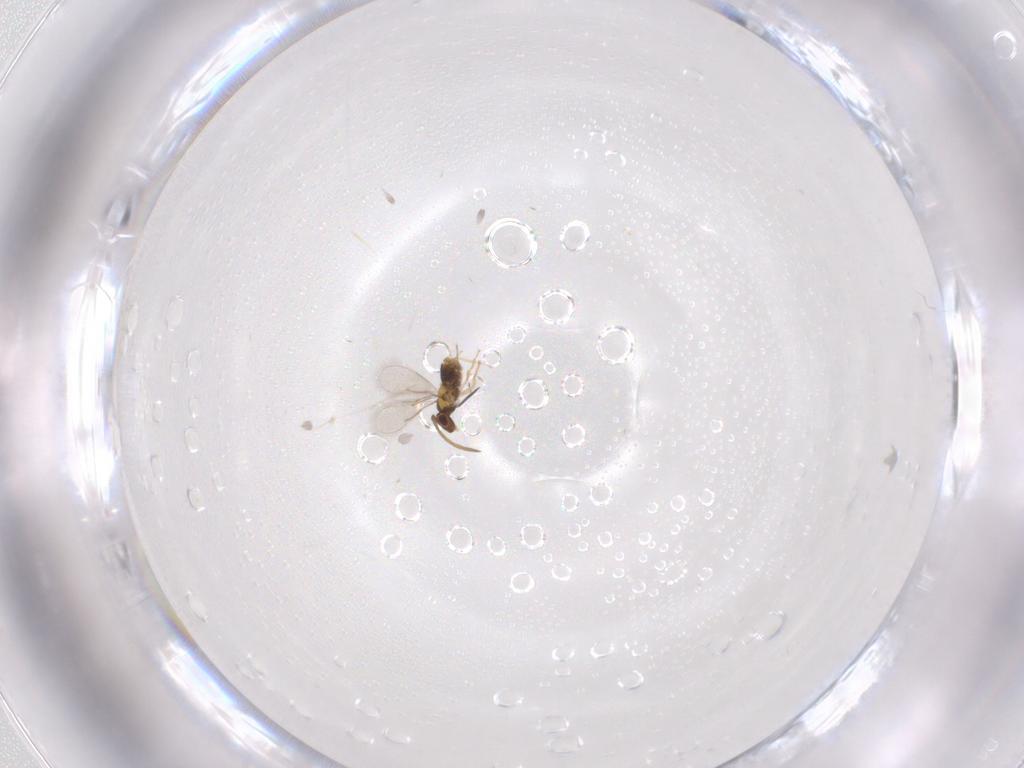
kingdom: Animalia
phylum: Arthropoda
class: Insecta
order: Hymenoptera
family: Aphelinidae
